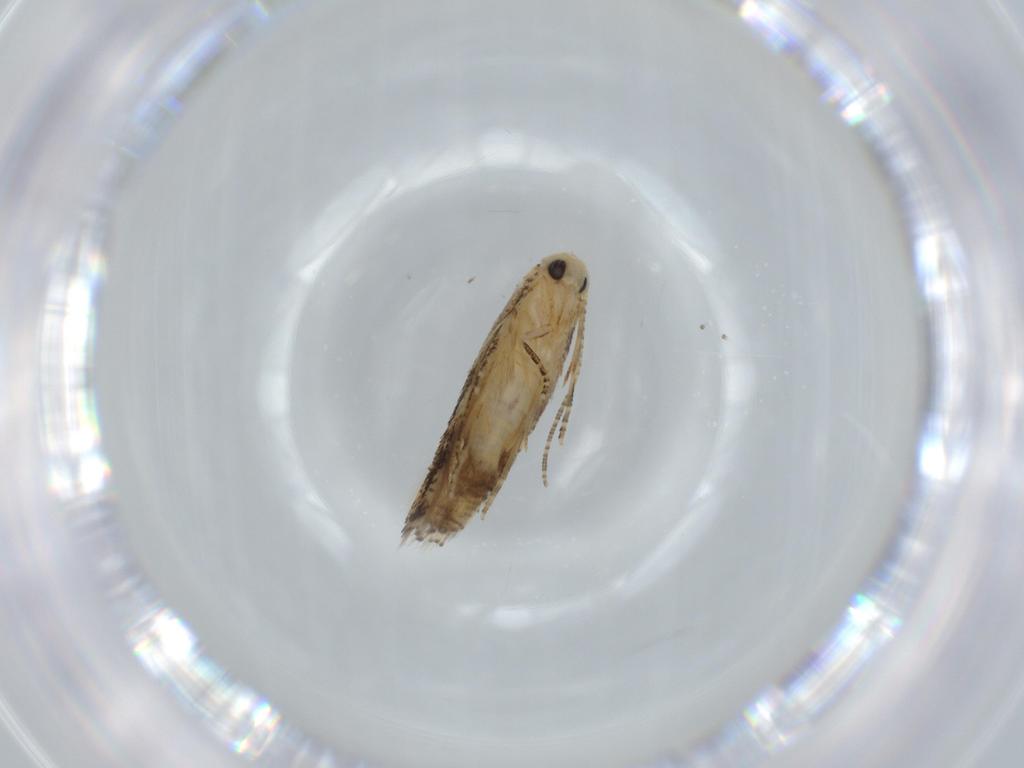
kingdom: Animalia
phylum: Arthropoda
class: Insecta
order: Lepidoptera
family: Bucculatricidae
